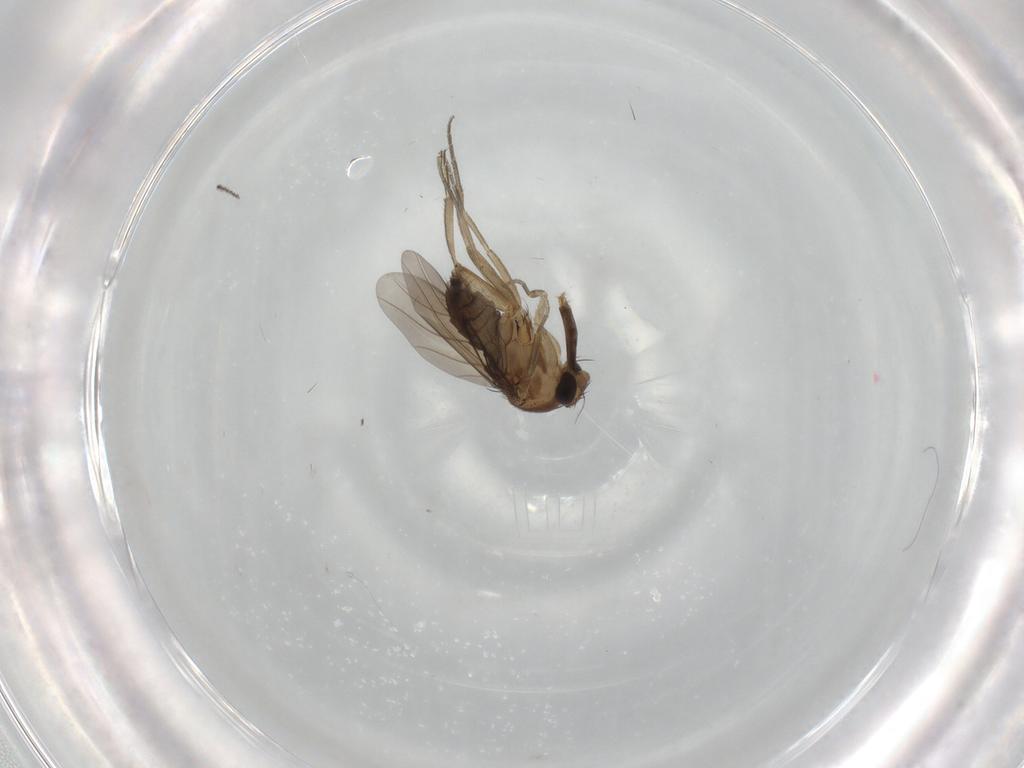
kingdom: Animalia
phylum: Arthropoda
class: Insecta
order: Diptera
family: Phoridae
